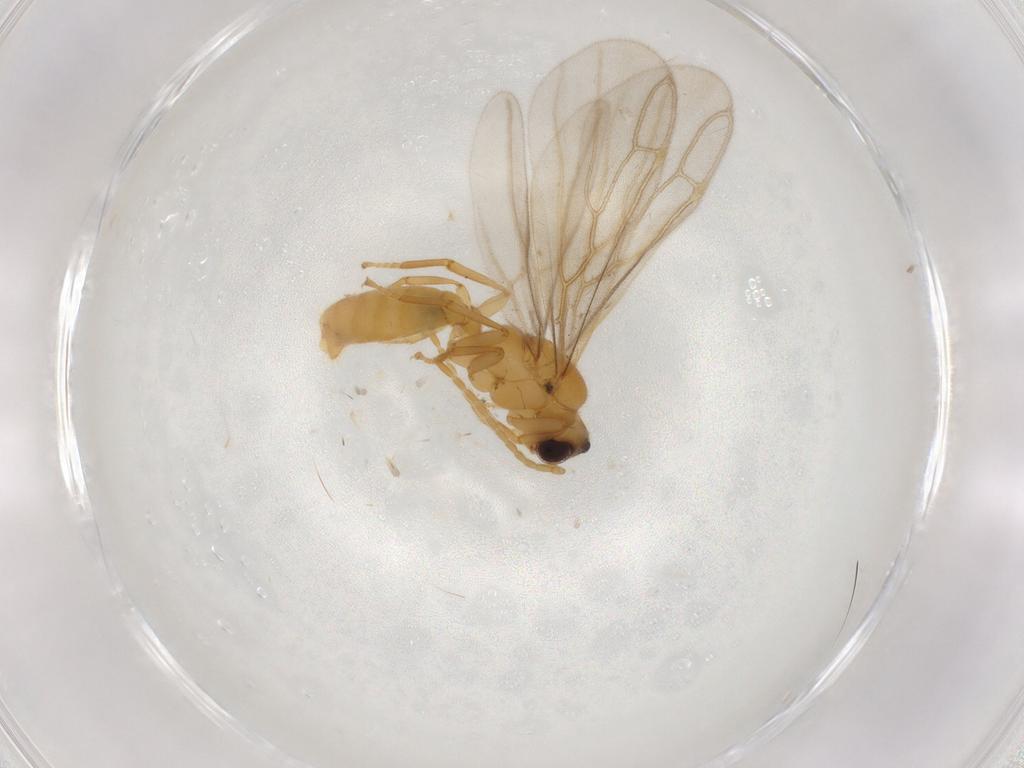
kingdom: Animalia
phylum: Arthropoda
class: Insecta
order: Hymenoptera
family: Formicidae
